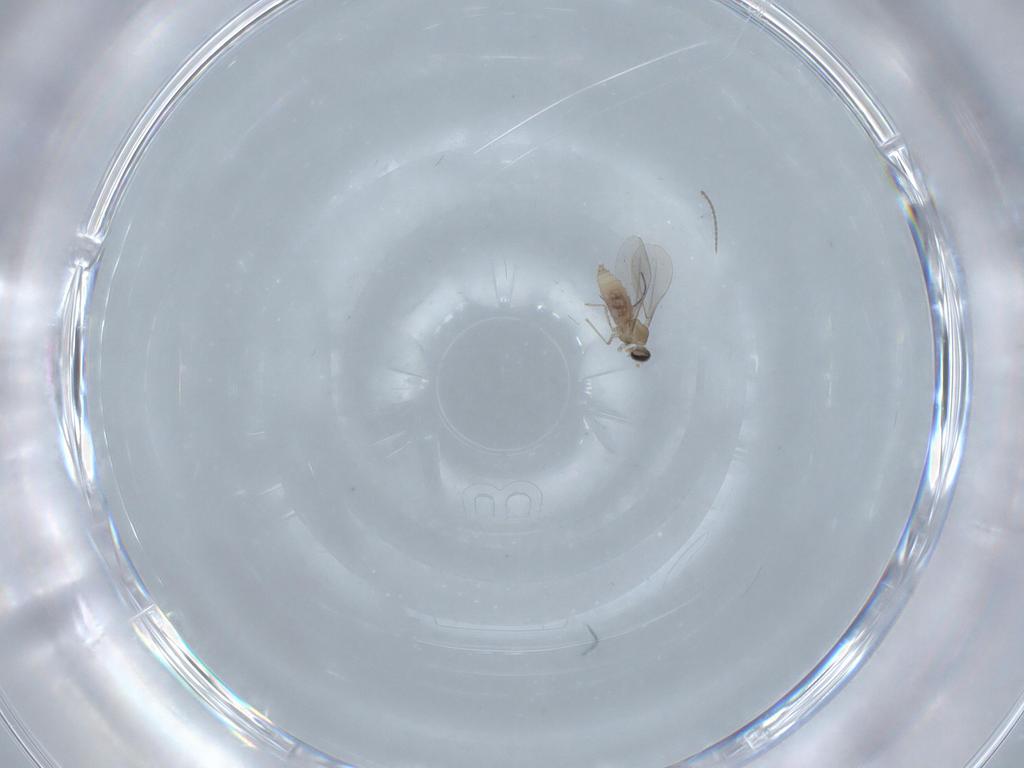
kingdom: Animalia
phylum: Arthropoda
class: Insecta
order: Diptera
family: Cecidomyiidae
